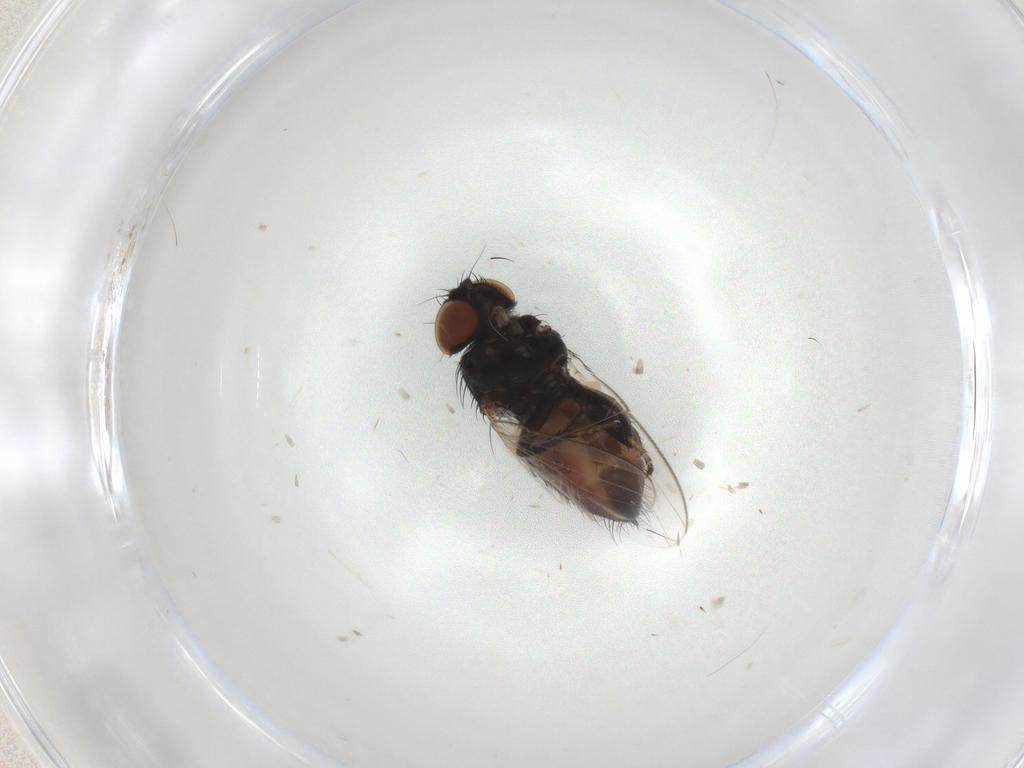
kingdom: Animalia
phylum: Arthropoda
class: Insecta
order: Diptera
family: Milichiidae
